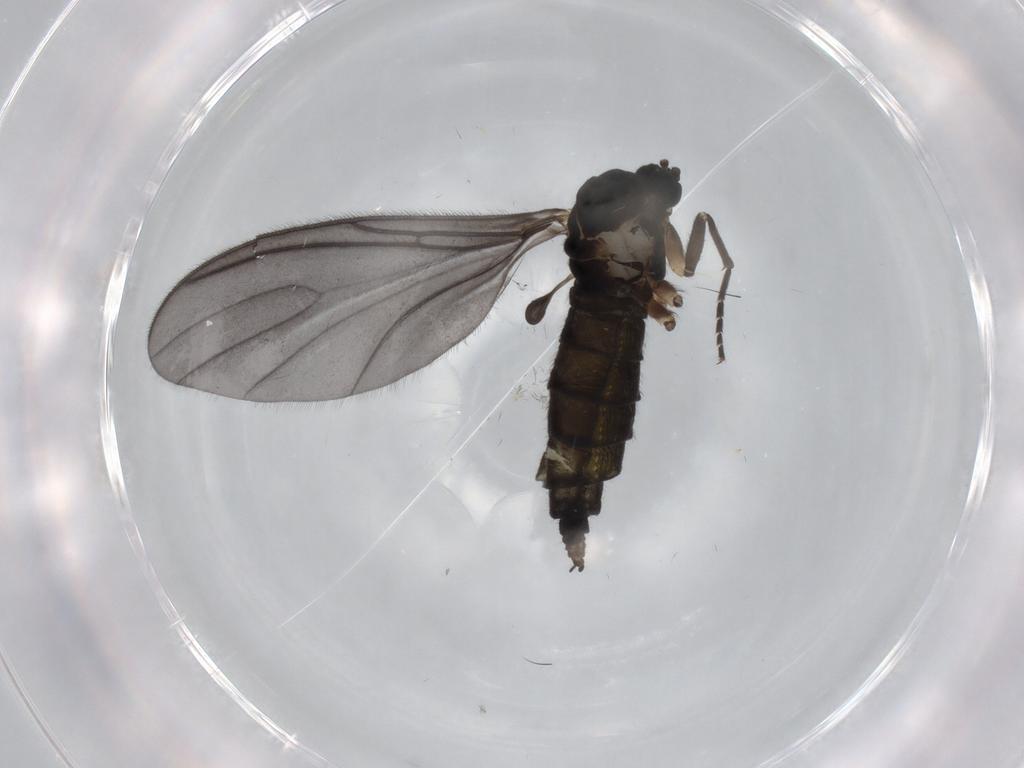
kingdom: Animalia
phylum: Arthropoda
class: Insecta
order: Diptera
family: Sciaridae
